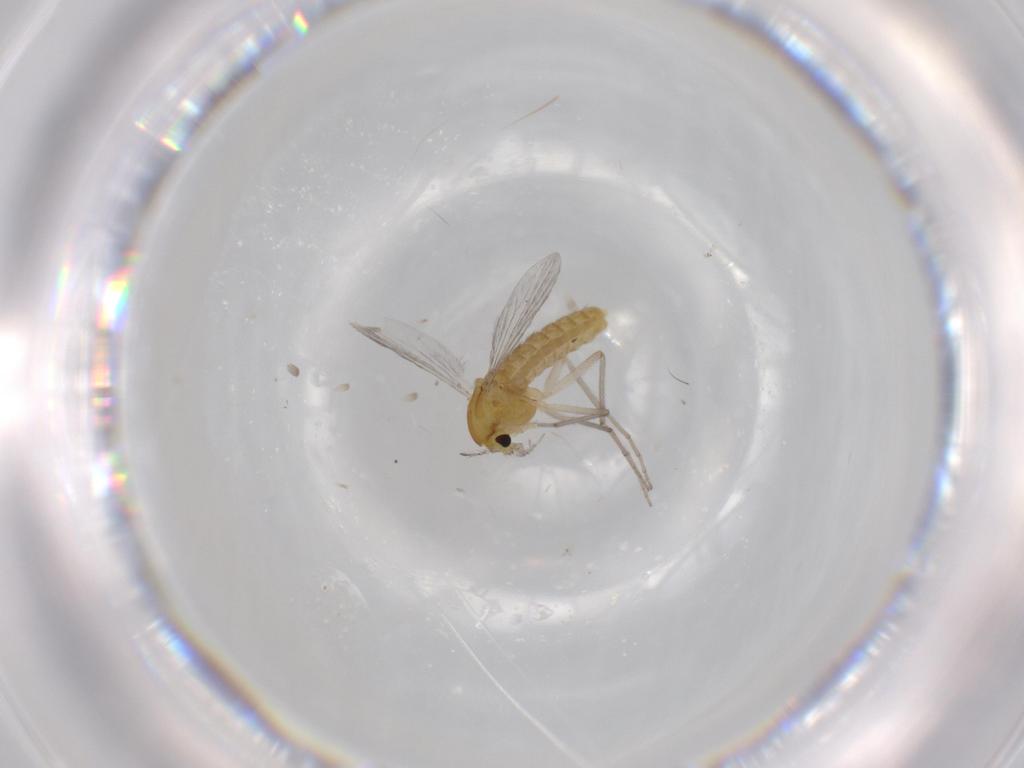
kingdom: Animalia
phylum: Arthropoda
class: Insecta
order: Diptera
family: Chironomidae
